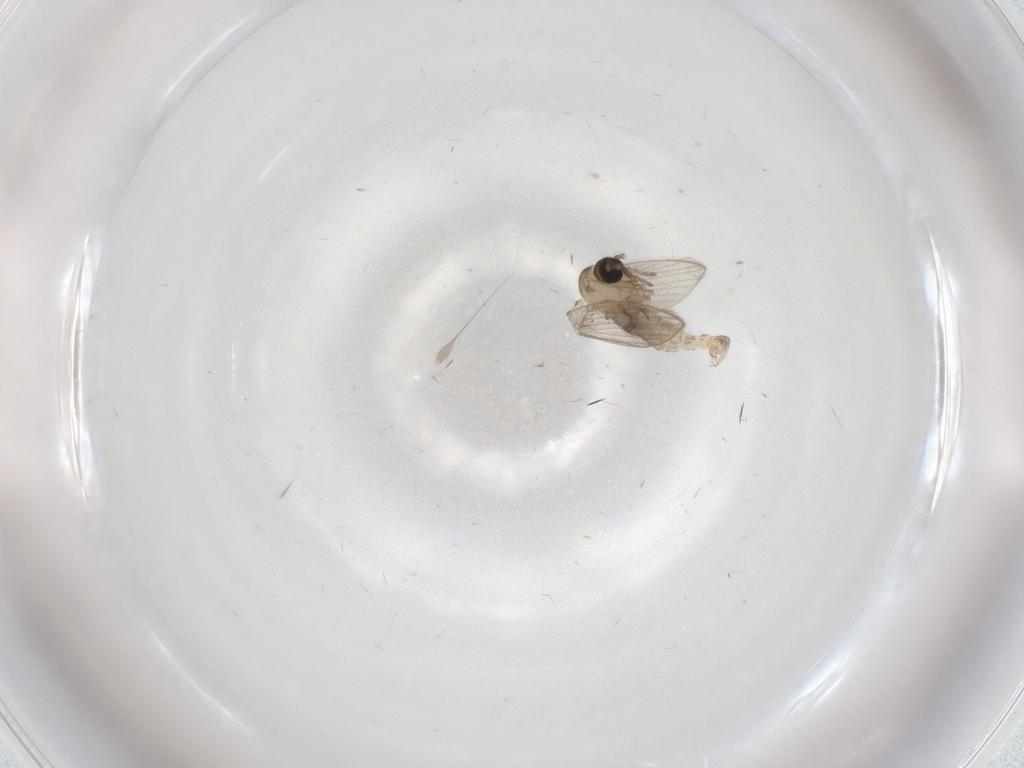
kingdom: Animalia
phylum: Arthropoda
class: Insecta
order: Diptera
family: Psychodidae
